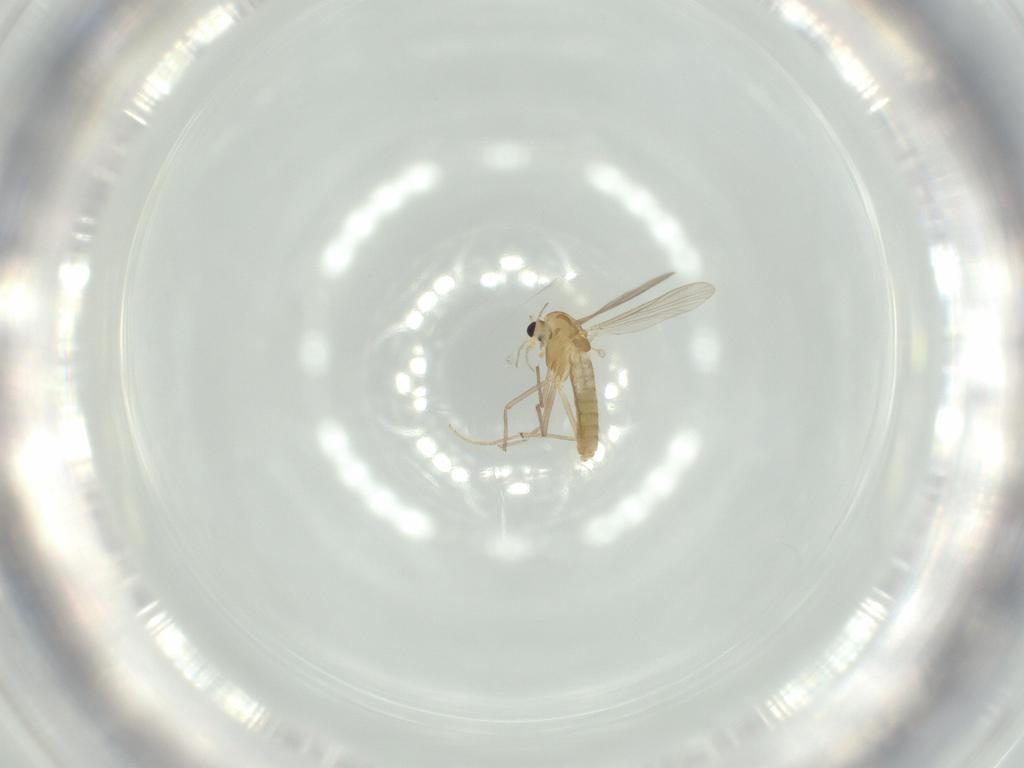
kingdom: Animalia
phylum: Arthropoda
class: Insecta
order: Diptera
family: Chironomidae
